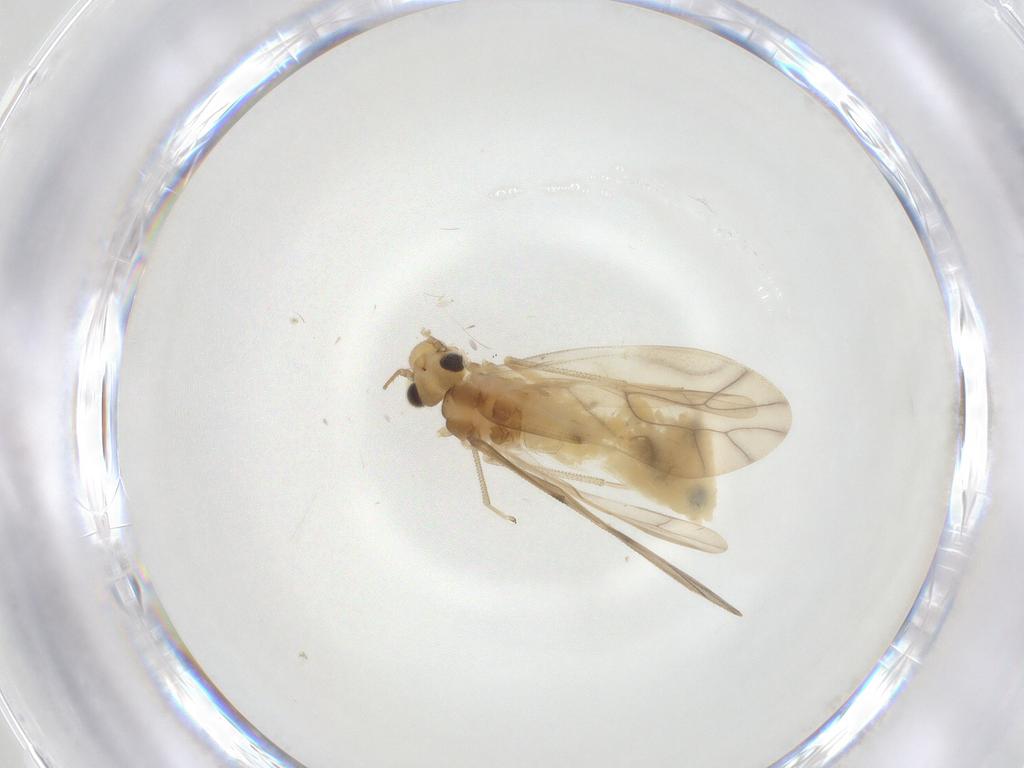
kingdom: Animalia
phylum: Arthropoda
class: Insecta
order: Psocodea
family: Caeciliusidae
